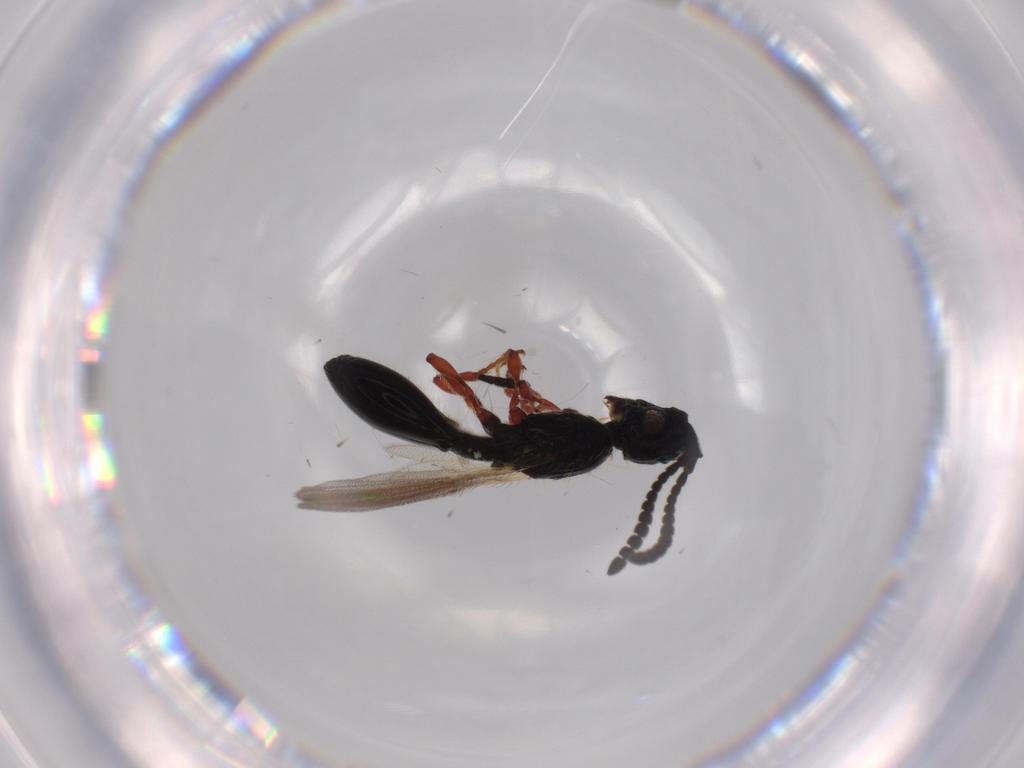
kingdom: Animalia
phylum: Arthropoda
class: Insecta
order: Hymenoptera
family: Aphelinidae
